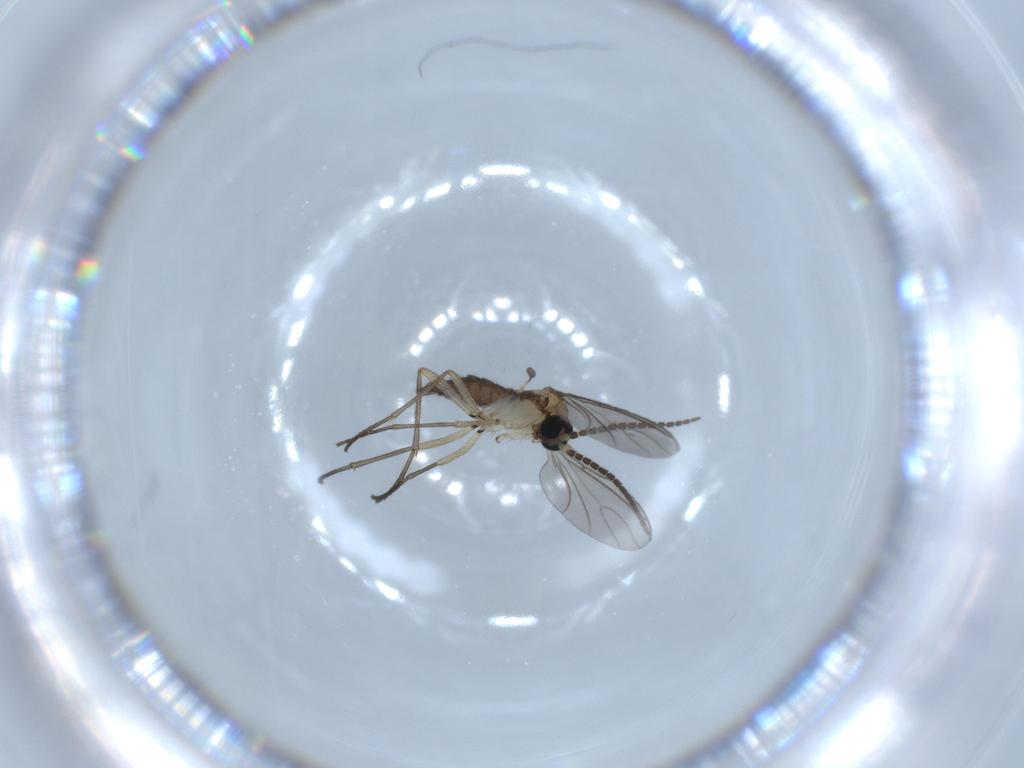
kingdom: Animalia
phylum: Arthropoda
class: Insecta
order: Diptera
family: Sciaridae
